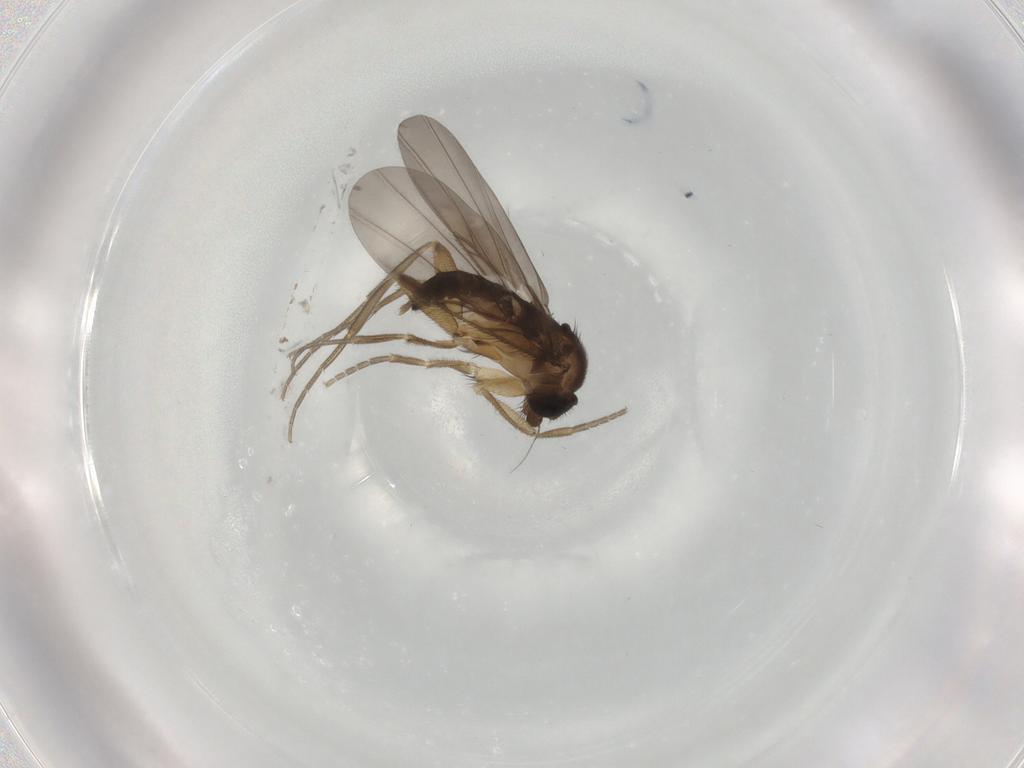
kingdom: Animalia
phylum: Arthropoda
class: Insecta
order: Diptera
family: Phoridae
